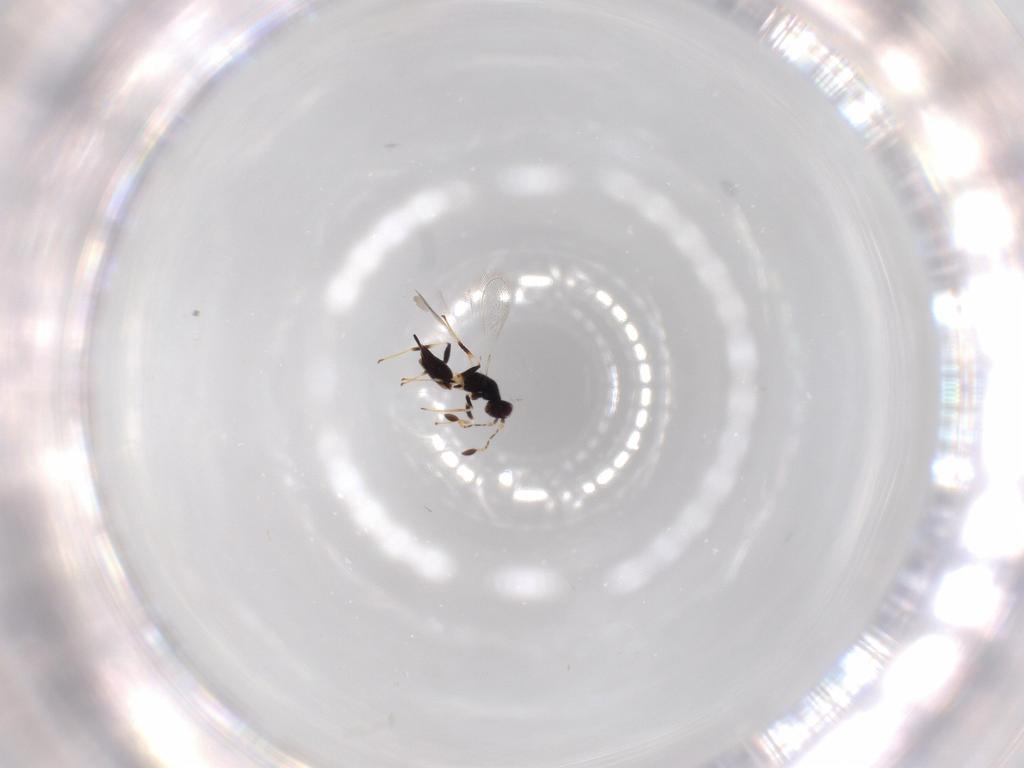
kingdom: Animalia
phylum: Arthropoda
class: Insecta
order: Hymenoptera
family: Mymaridae
